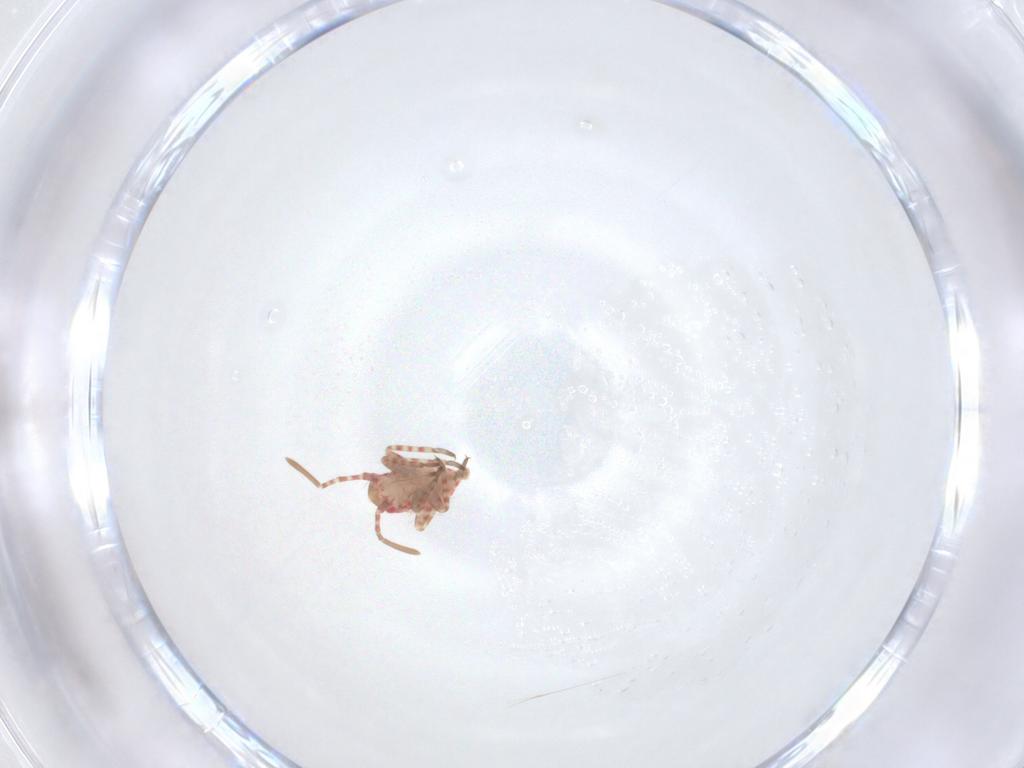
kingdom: Animalia
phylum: Arthropoda
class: Insecta
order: Hemiptera
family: Miridae
